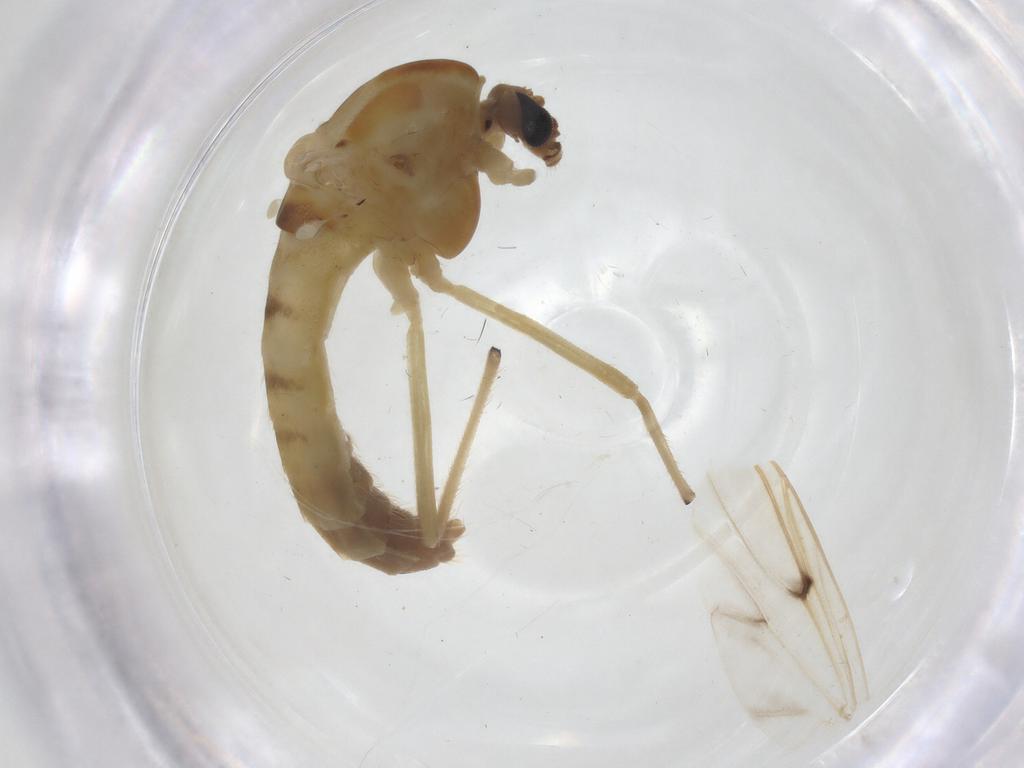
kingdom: Animalia
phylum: Arthropoda
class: Insecta
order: Diptera
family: Chironomidae
